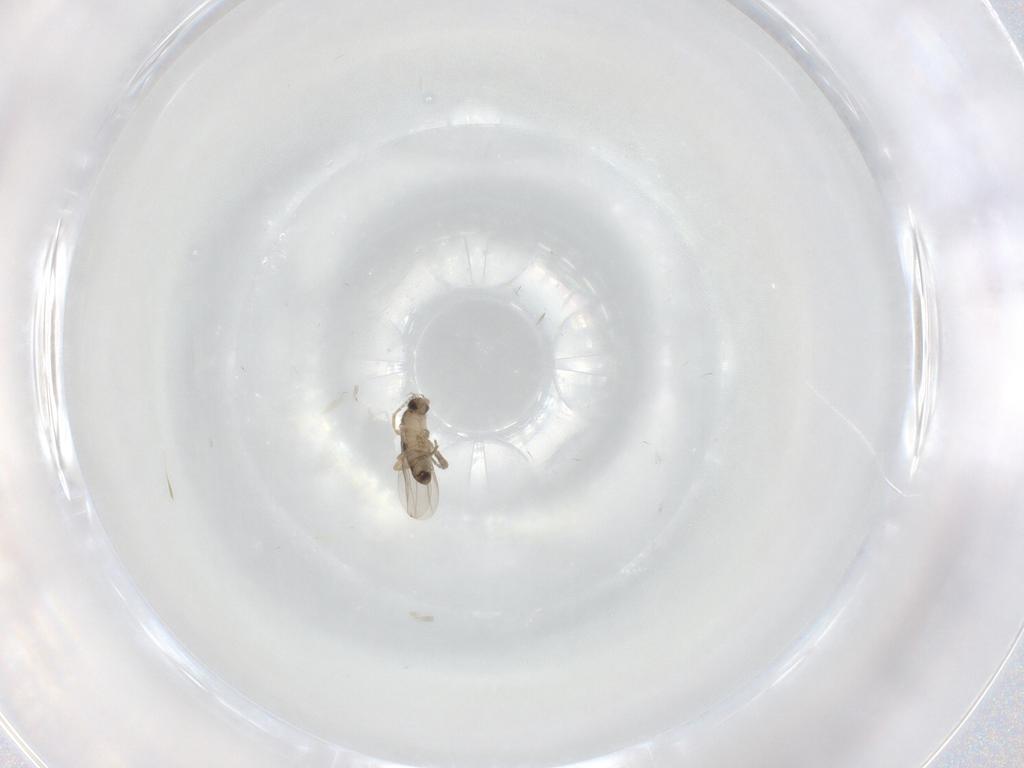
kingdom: Animalia
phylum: Arthropoda
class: Insecta
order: Diptera
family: Phoridae
